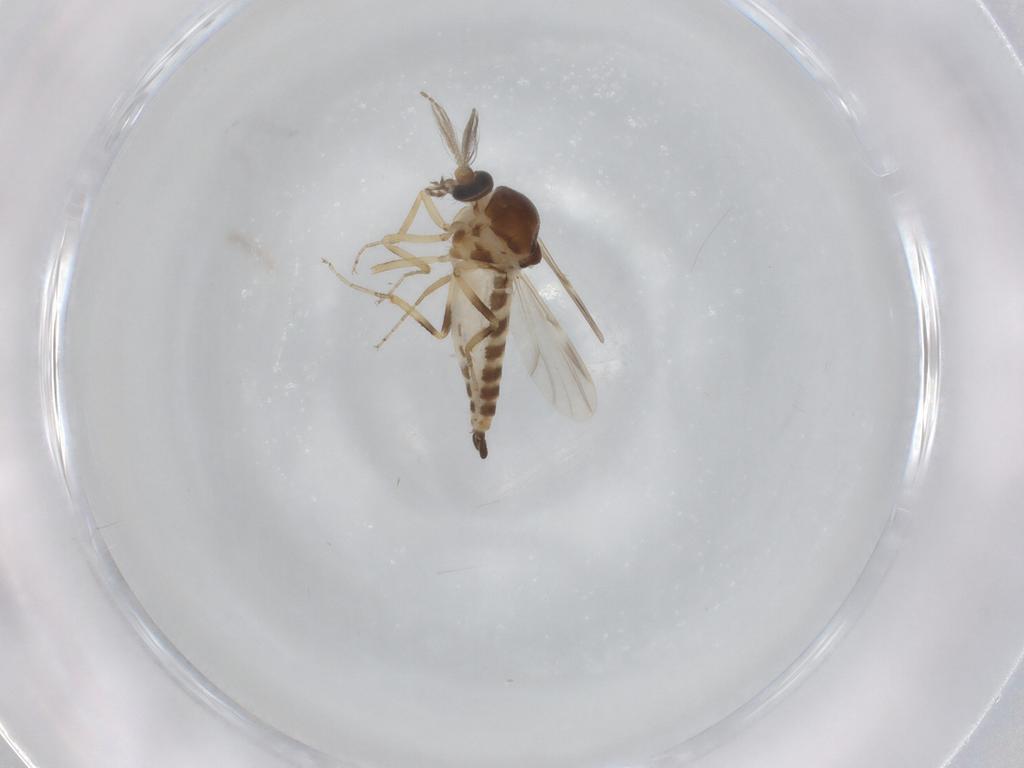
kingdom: Animalia
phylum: Arthropoda
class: Insecta
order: Diptera
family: Ceratopogonidae
